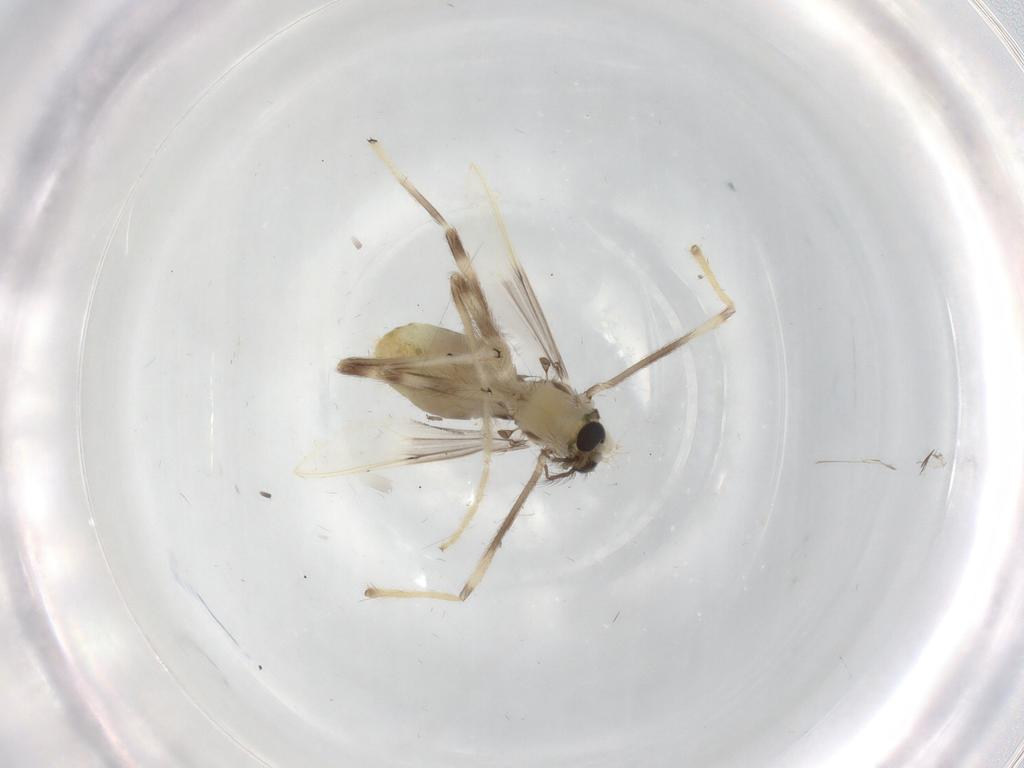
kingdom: Animalia
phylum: Arthropoda
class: Insecta
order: Diptera
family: Chironomidae
